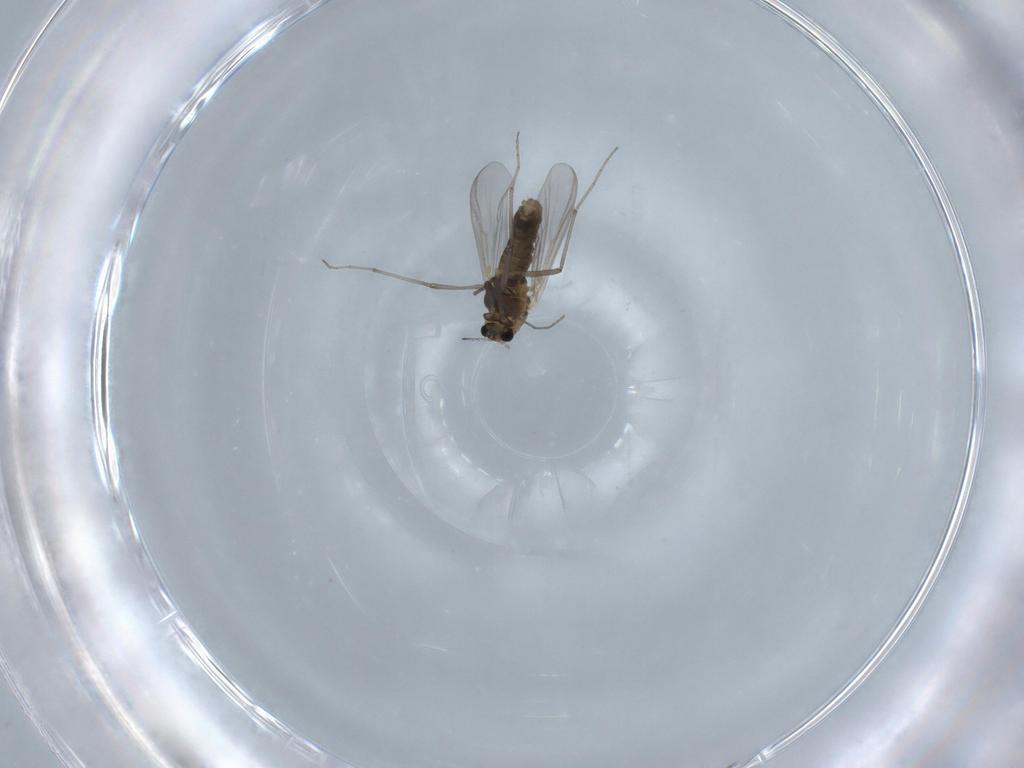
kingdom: Animalia
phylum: Arthropoda
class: Insecta
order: Diptera
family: Chironomidae
